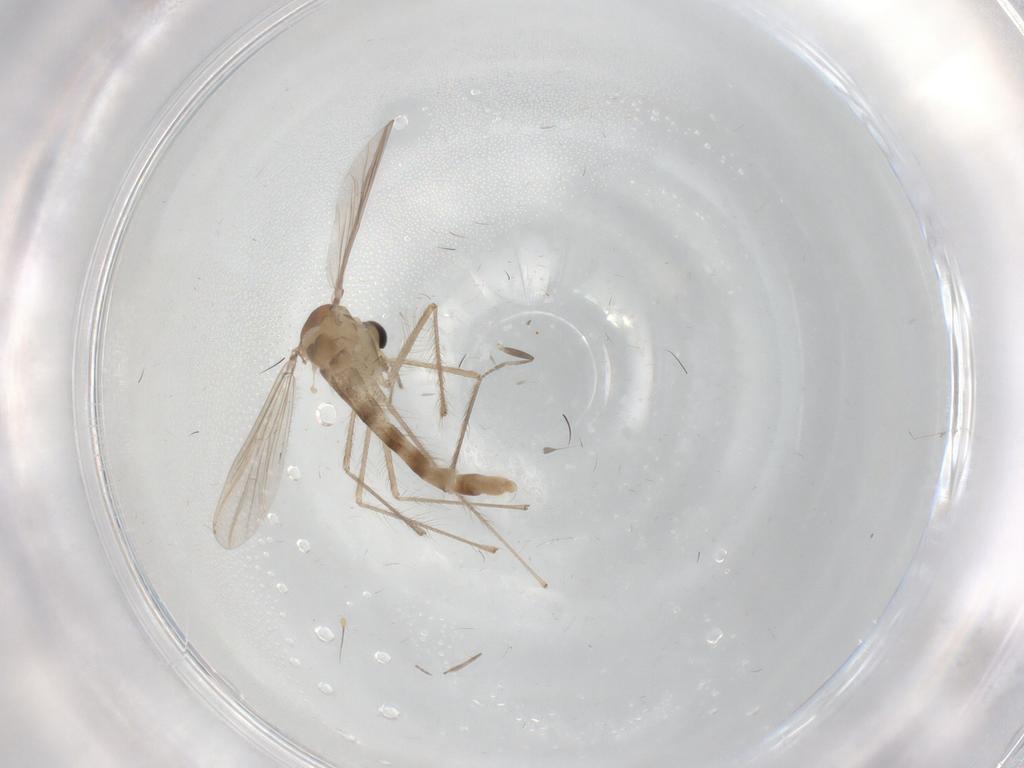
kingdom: Animalia
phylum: Arthropoda
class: Insecta
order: Diptera
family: Chironomidae
